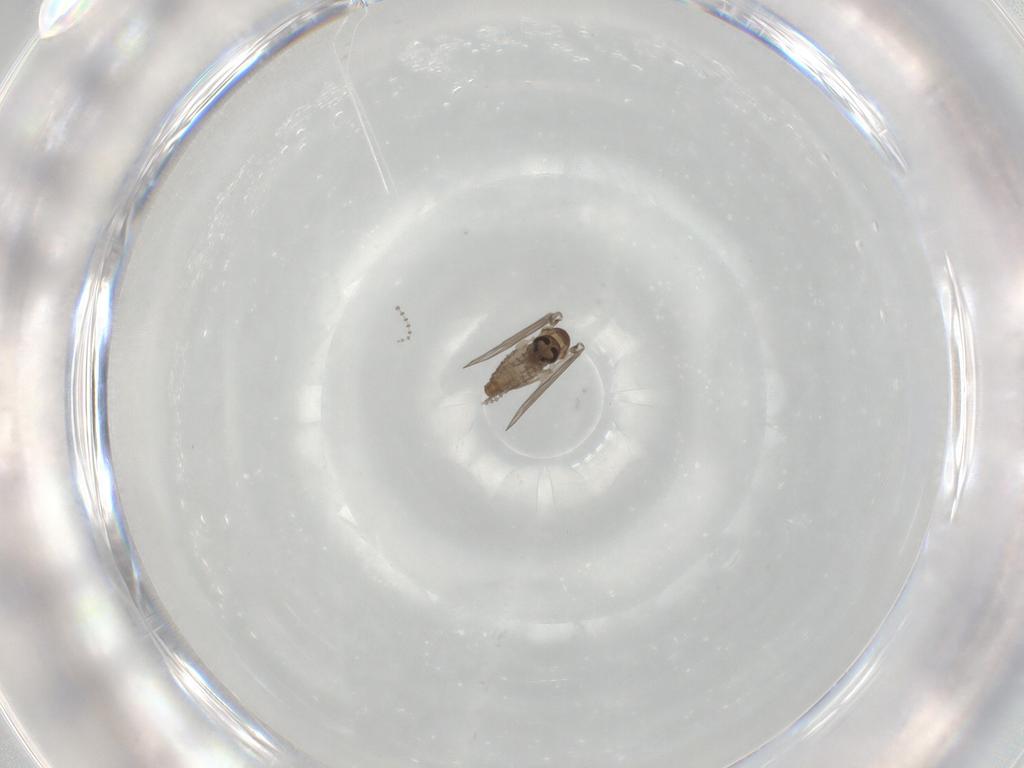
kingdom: Animalia
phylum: Arthropoda
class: Insecta
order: Diptera
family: Psychodidae
